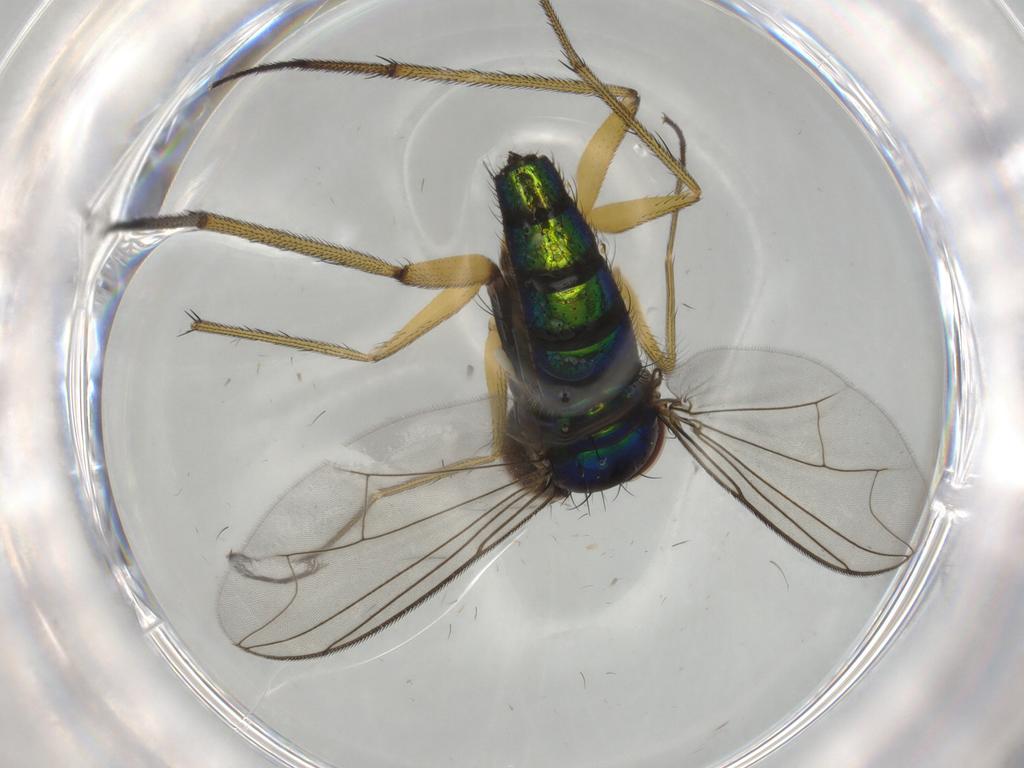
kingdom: Animalia
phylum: Arthropoda
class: Insecta
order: Diptera
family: Dolichopodidae
